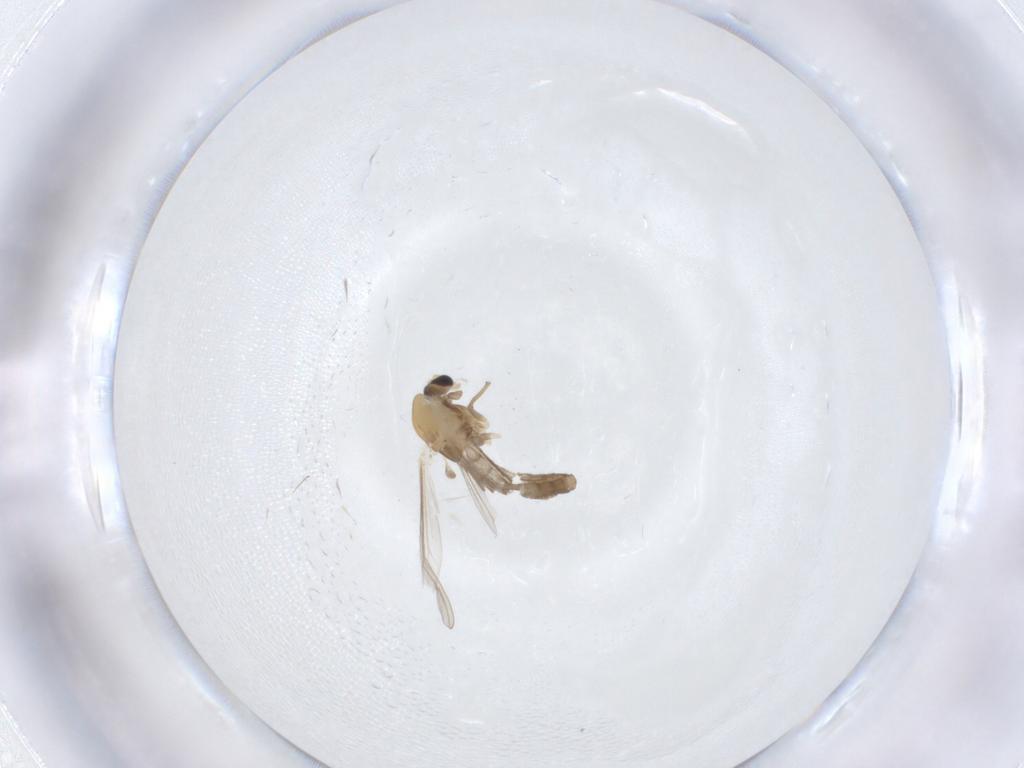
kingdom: Animalia
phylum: Arthropoda
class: Insecta
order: Diptera
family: Chironomidae
